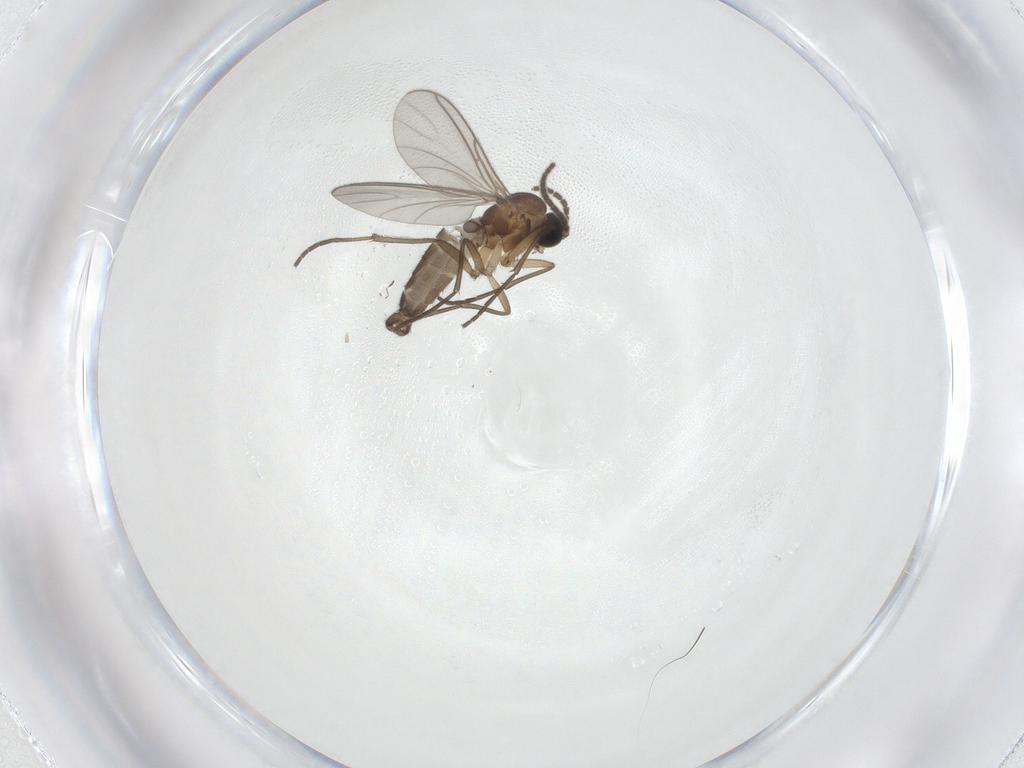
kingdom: Animalia
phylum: Arthropoda
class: Insecta
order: Diptera
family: Sciaridae
